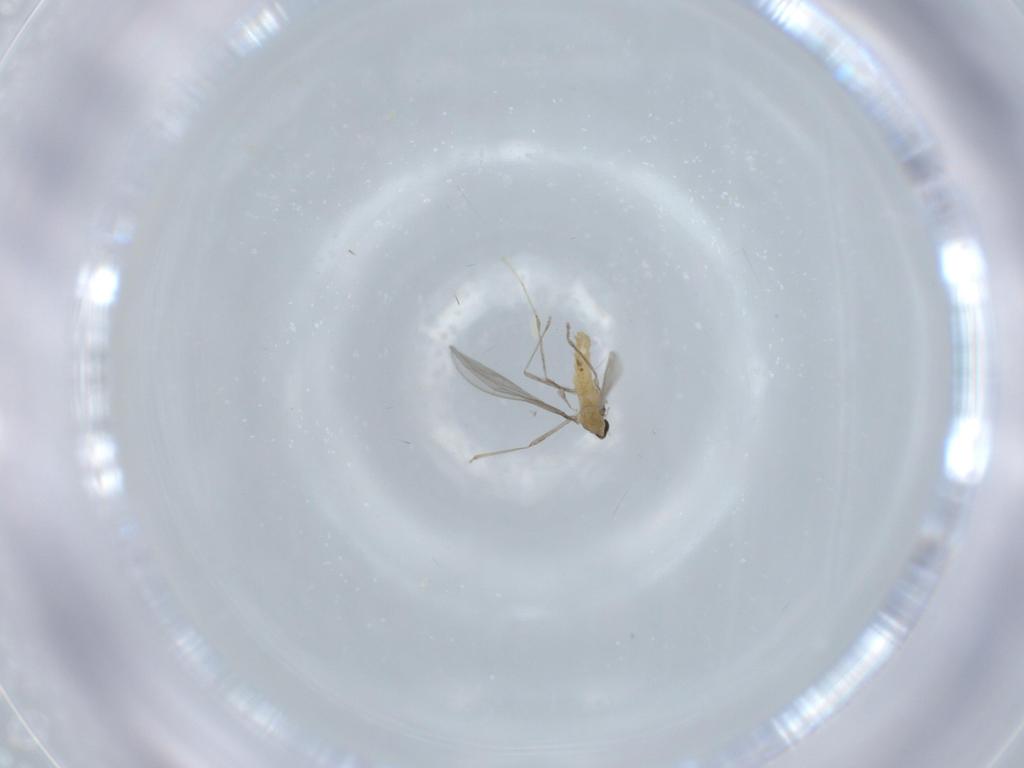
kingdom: Animalia
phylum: Arthropoda
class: Insecta
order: Diptera
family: Cecidomyiidae
